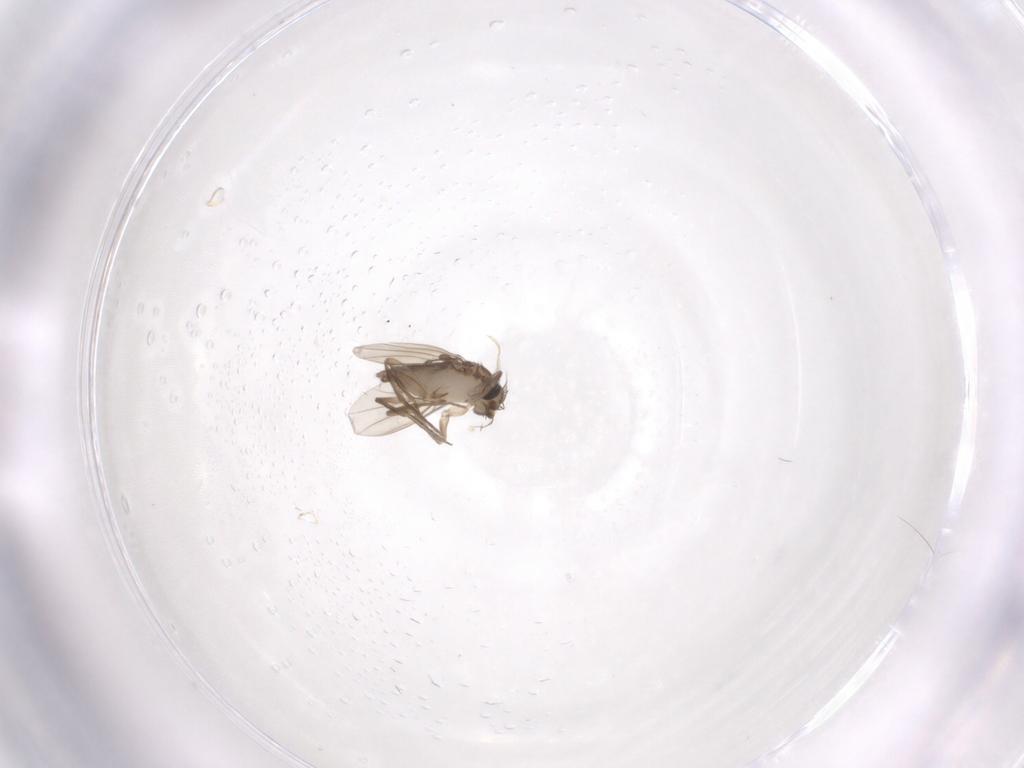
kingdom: Animalia
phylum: Arthropoda
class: Insecta
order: Diptera
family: Phoridae
